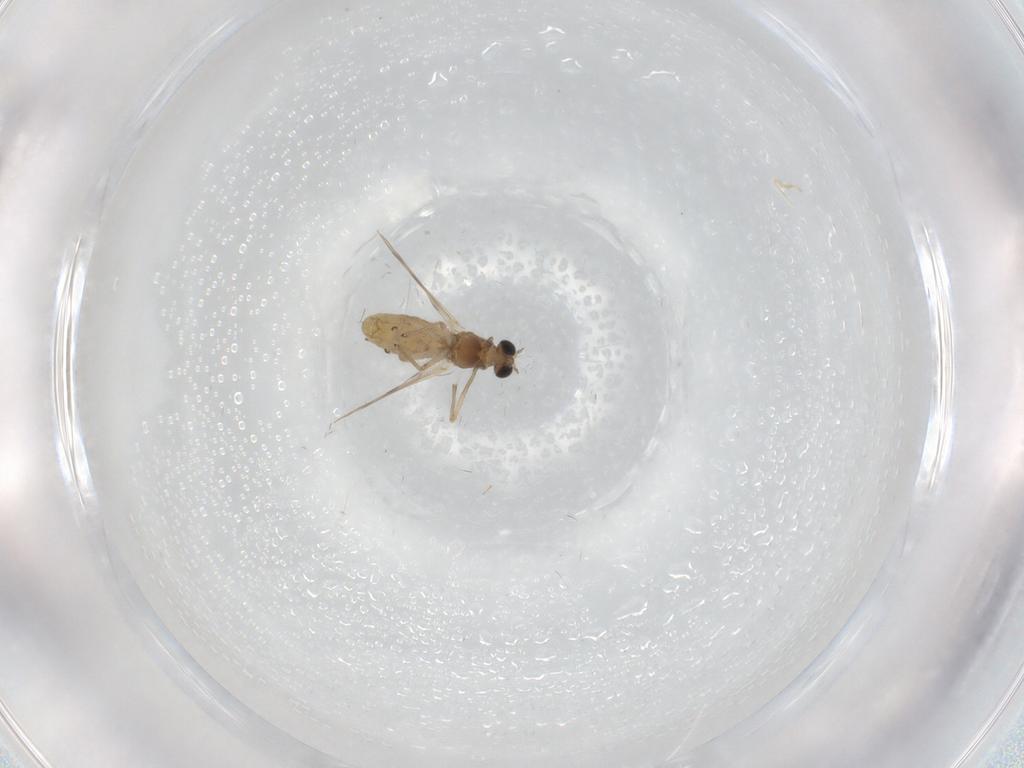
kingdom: Animalia
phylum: Arthropoda
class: Insecta
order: Diptera
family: Chironomidae
